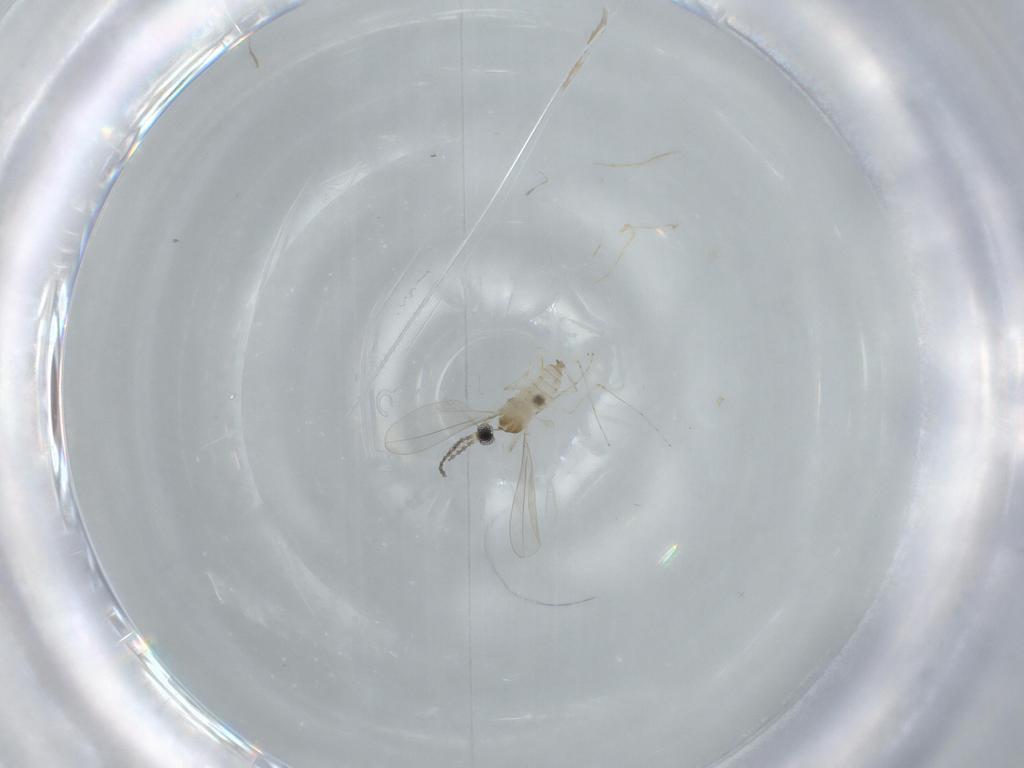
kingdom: Animalia
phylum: Arthropoda
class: Insecta
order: Diptera
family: Cecidomyiidae
